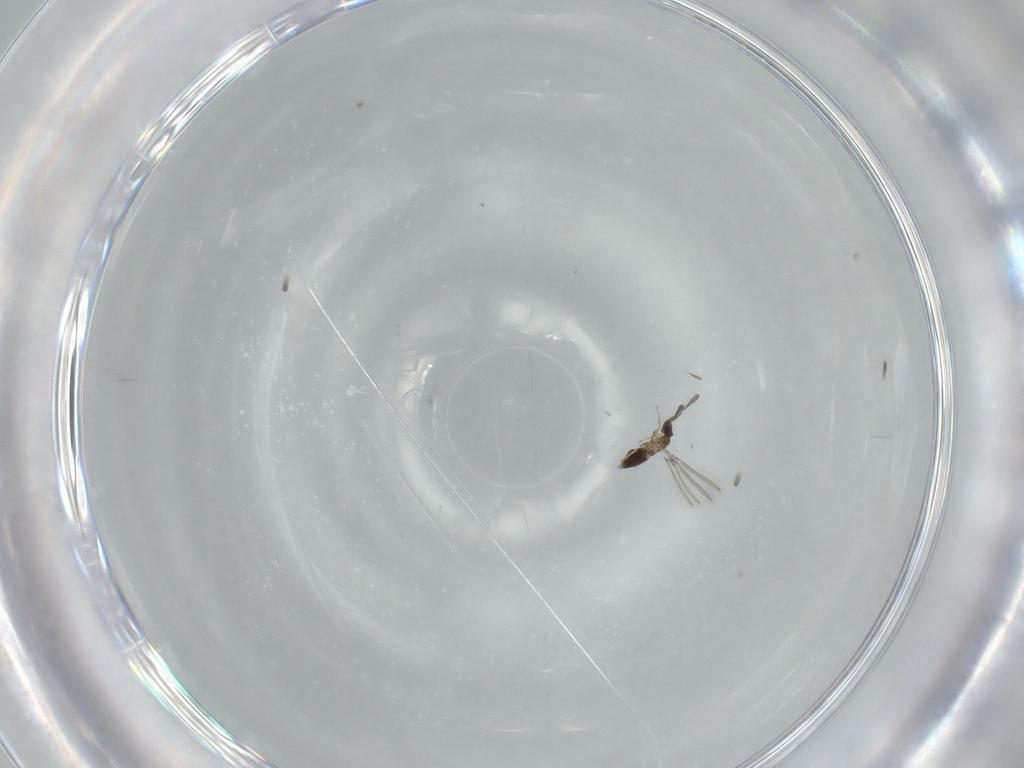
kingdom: Animalia
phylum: Arthropoda
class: Insecta
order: Hymenoptera
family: Mymaridae
